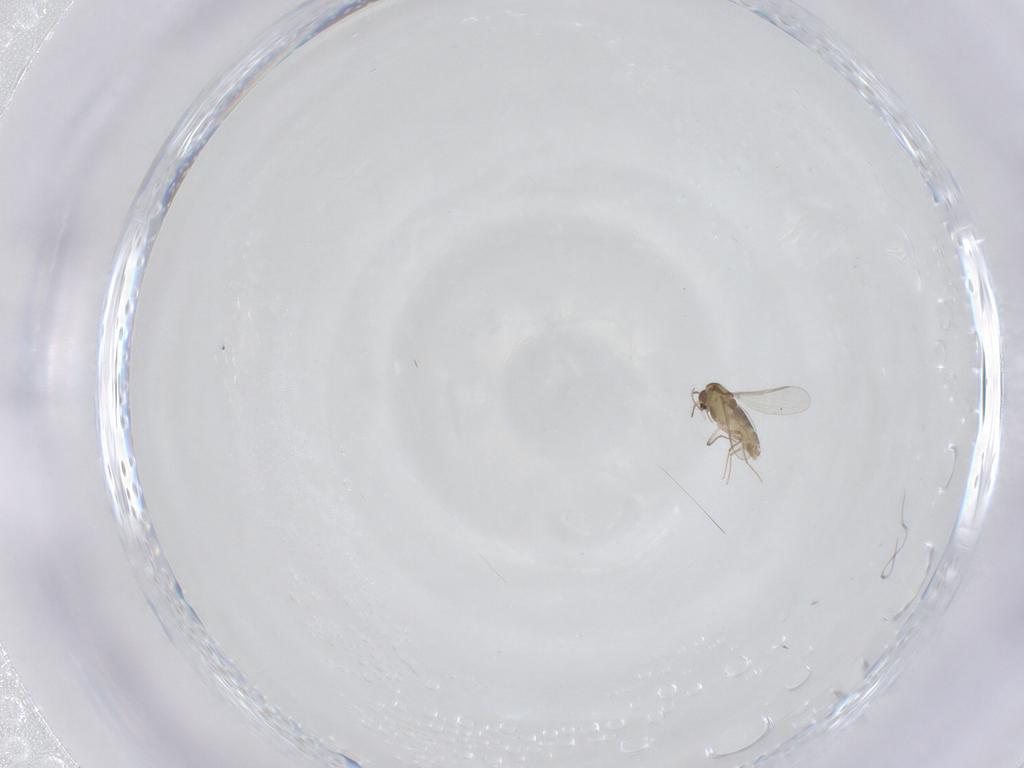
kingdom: Animalia
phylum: Arthropoda
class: Insecta
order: Diptera
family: Chironomidae
